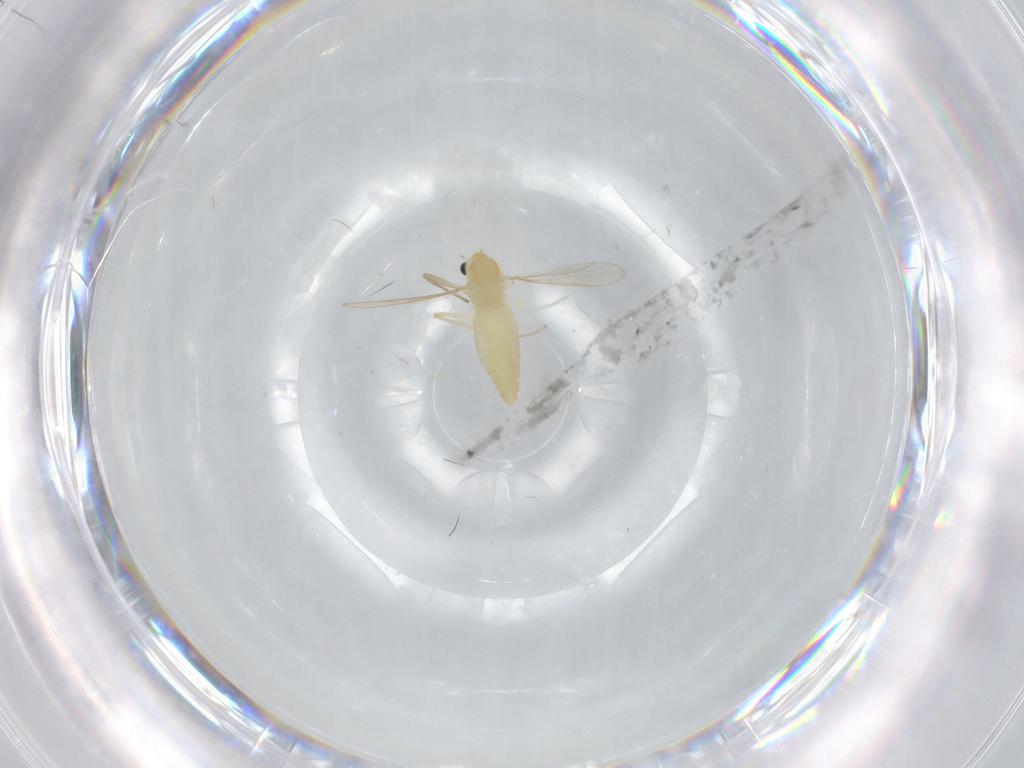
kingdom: Animalia
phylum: Arthropoda
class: Insecta
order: Diptera
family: Chironomidae
